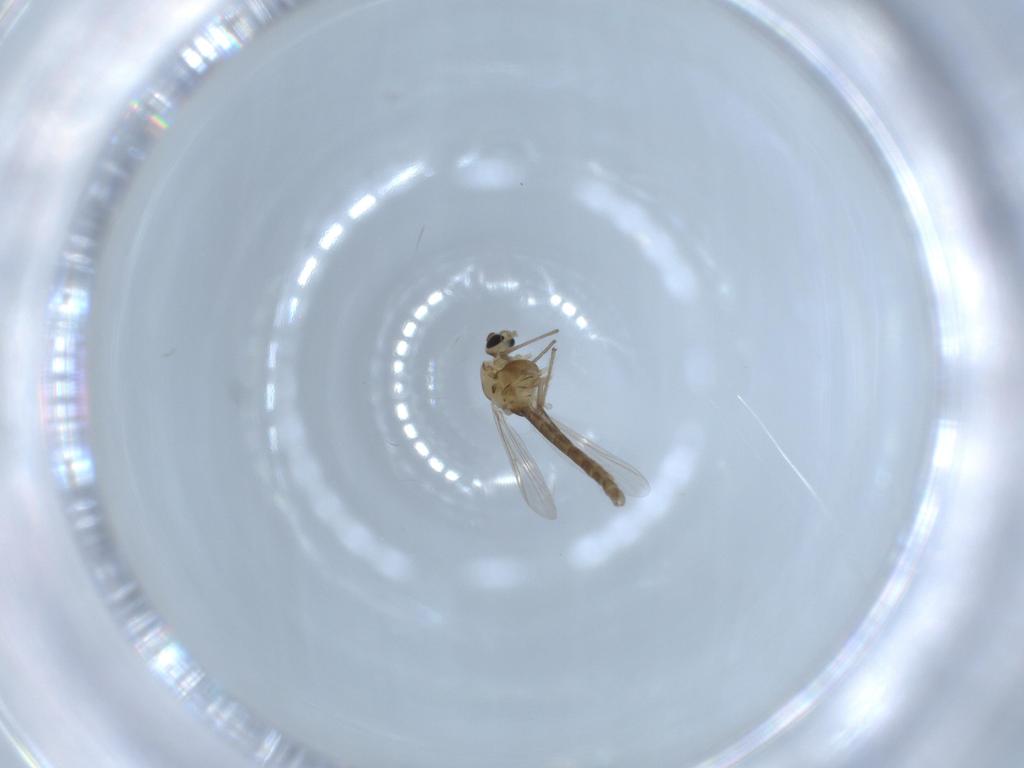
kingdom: Animalia
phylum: Arthropoda
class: Insecta
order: Diptera
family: Chironomidae
